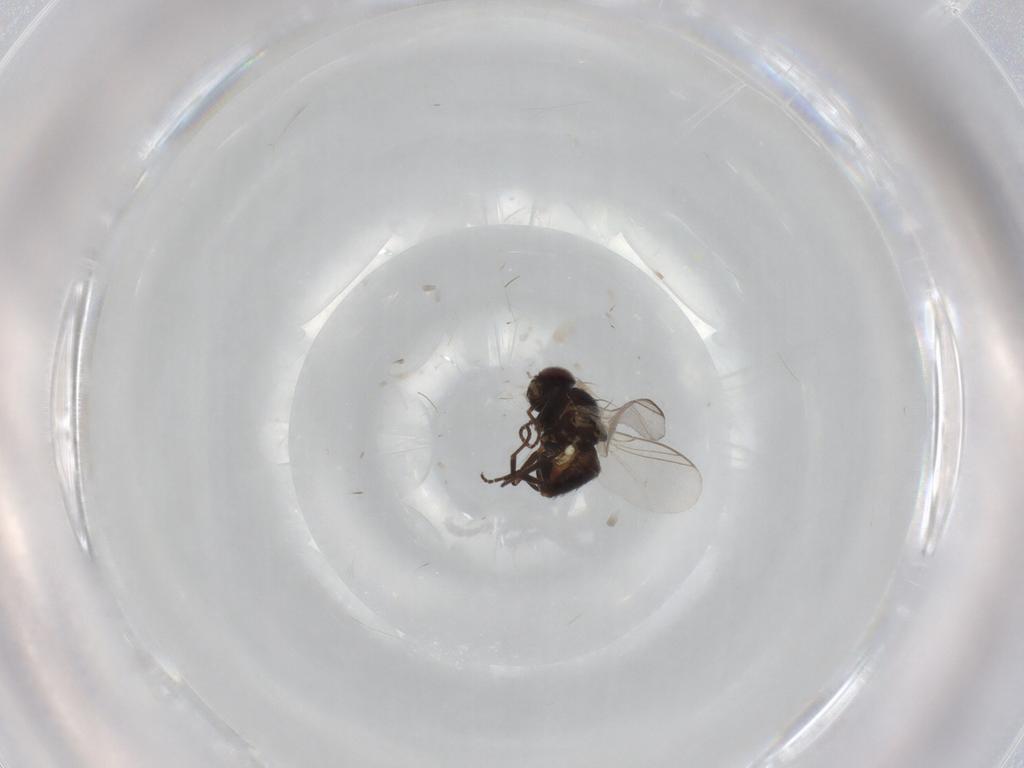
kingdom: Animalia
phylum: Arthropoda
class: Insecta
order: Diptera
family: Agromyzidae
